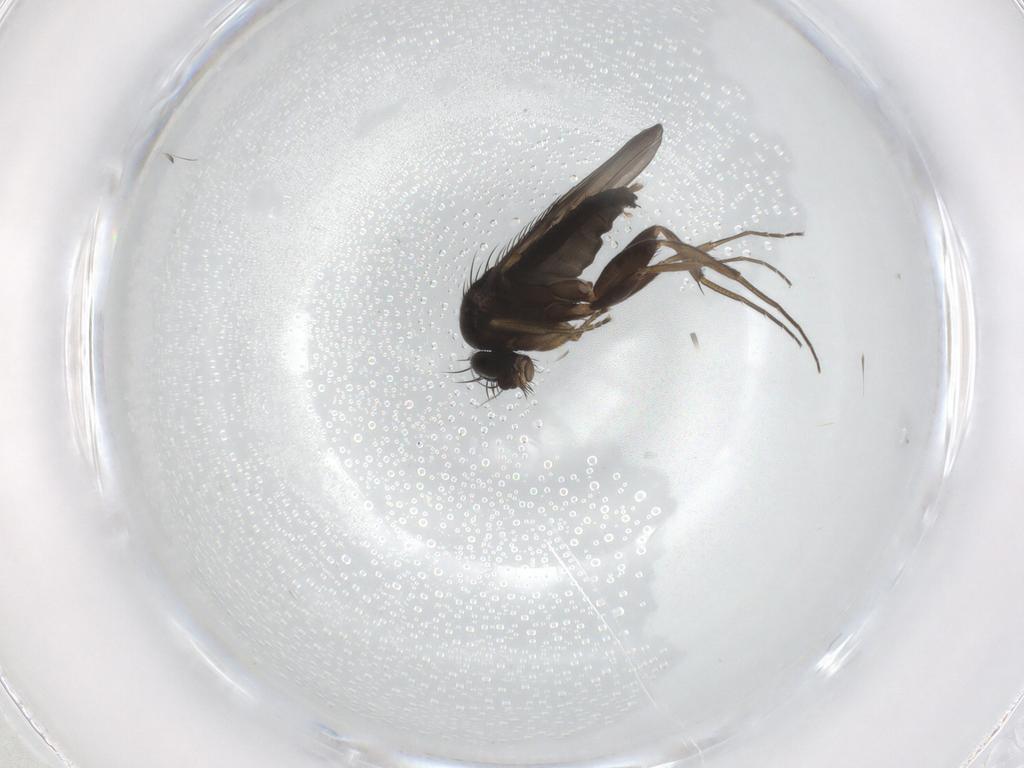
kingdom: Animalia
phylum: Arthropoda
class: Insecta
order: Diptera
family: Phoridae
